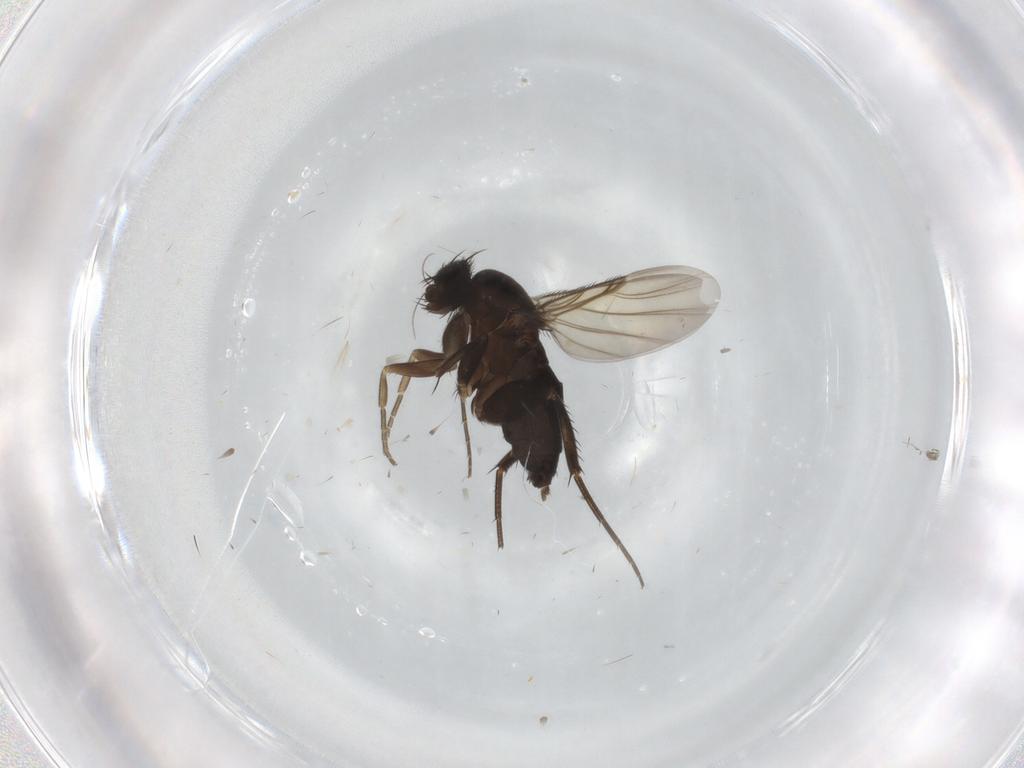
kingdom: Animalia
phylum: Arthropoda
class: Insecta
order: Diptera
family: Phoridae
